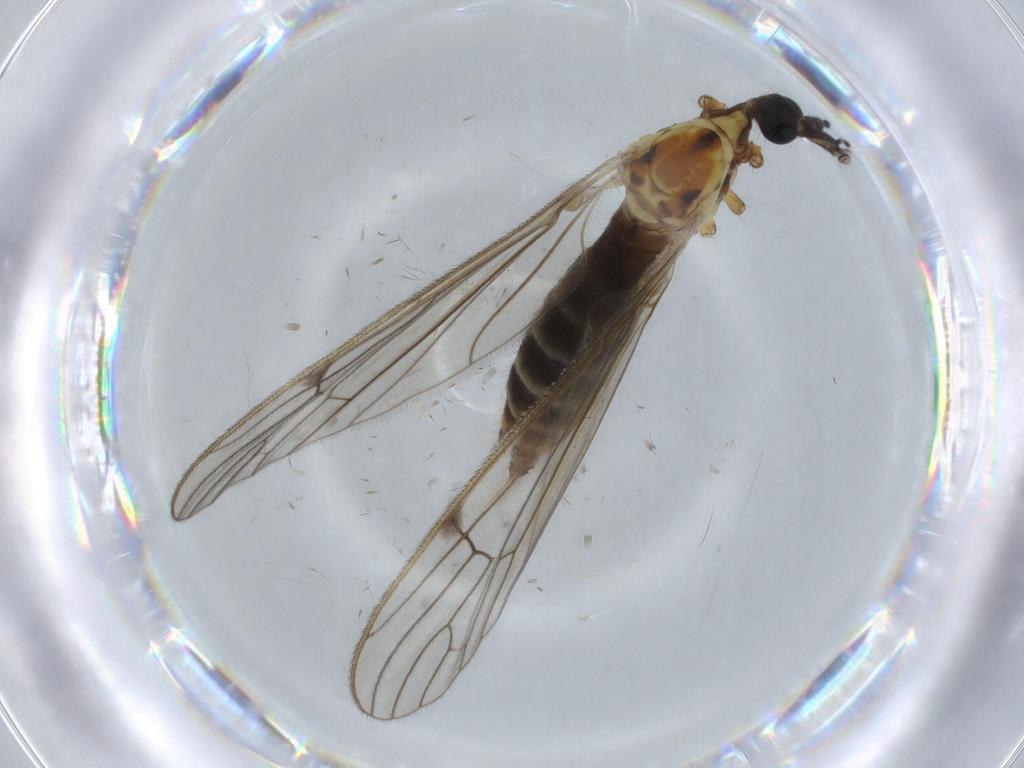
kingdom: Animalia
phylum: Arthropoda
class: Insecta
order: Diptera
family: Limoniidae
